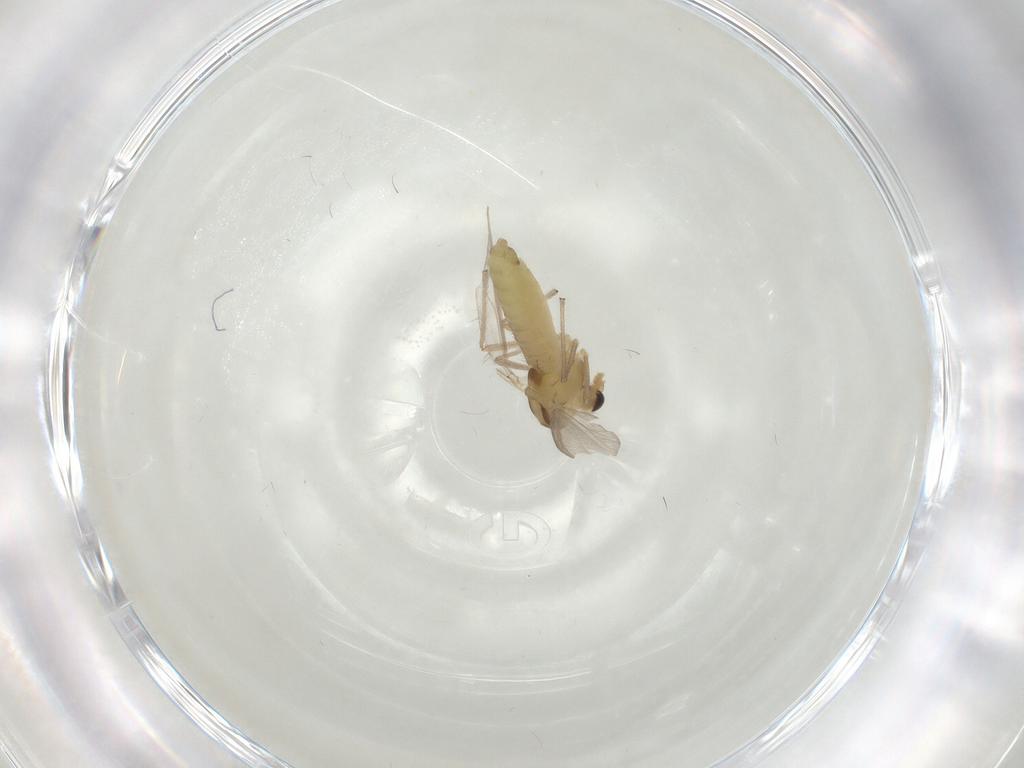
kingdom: Animalia
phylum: Arthropoda
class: Insecta
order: Diptera
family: Chironomidae
